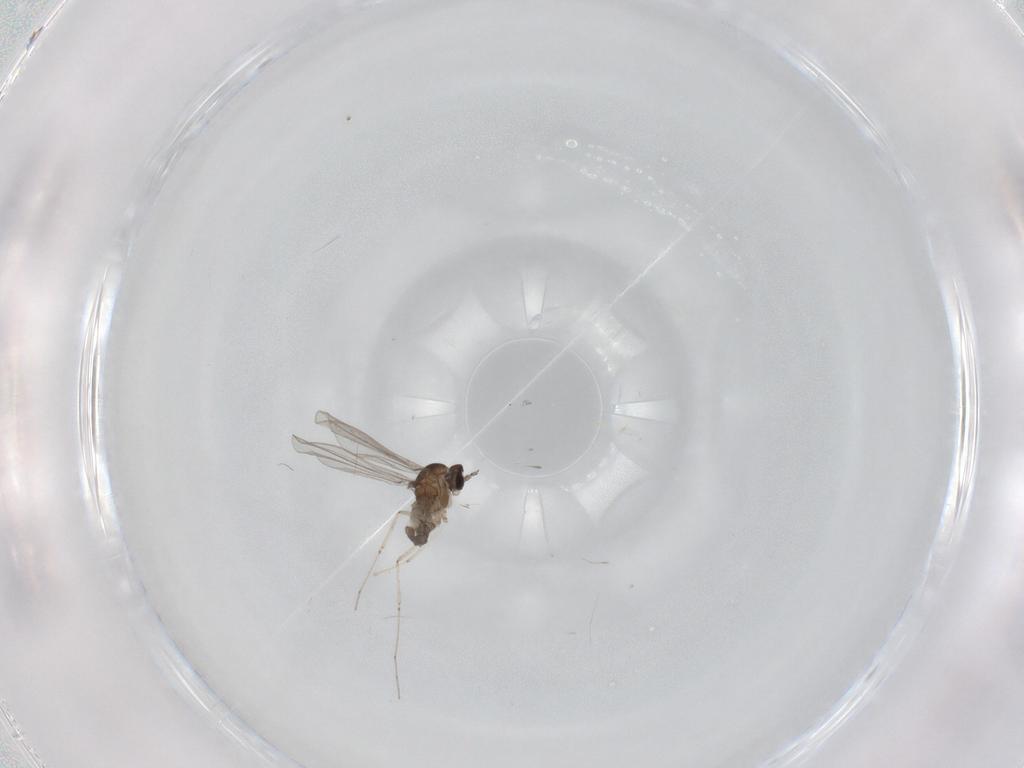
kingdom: Animalia
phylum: Arthropoda
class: Insecta
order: Diptera
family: Cecidomyiidae
